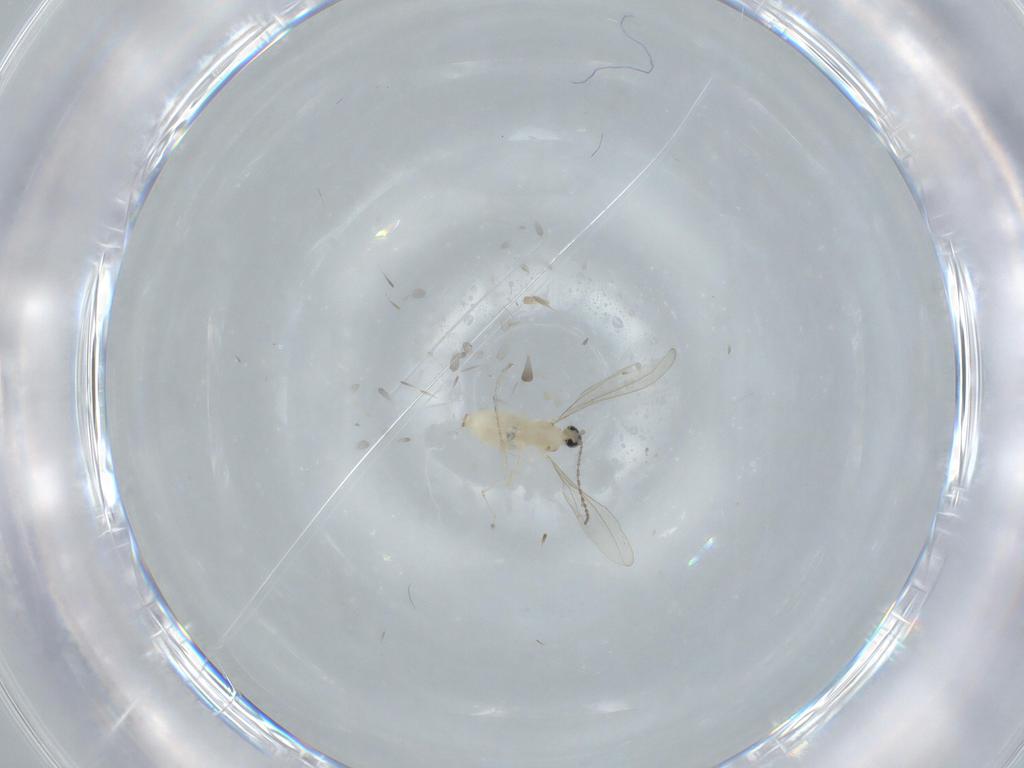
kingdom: Animalia
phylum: Arthropoda
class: Insecta
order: Diptera
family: Cecidomyiidae
